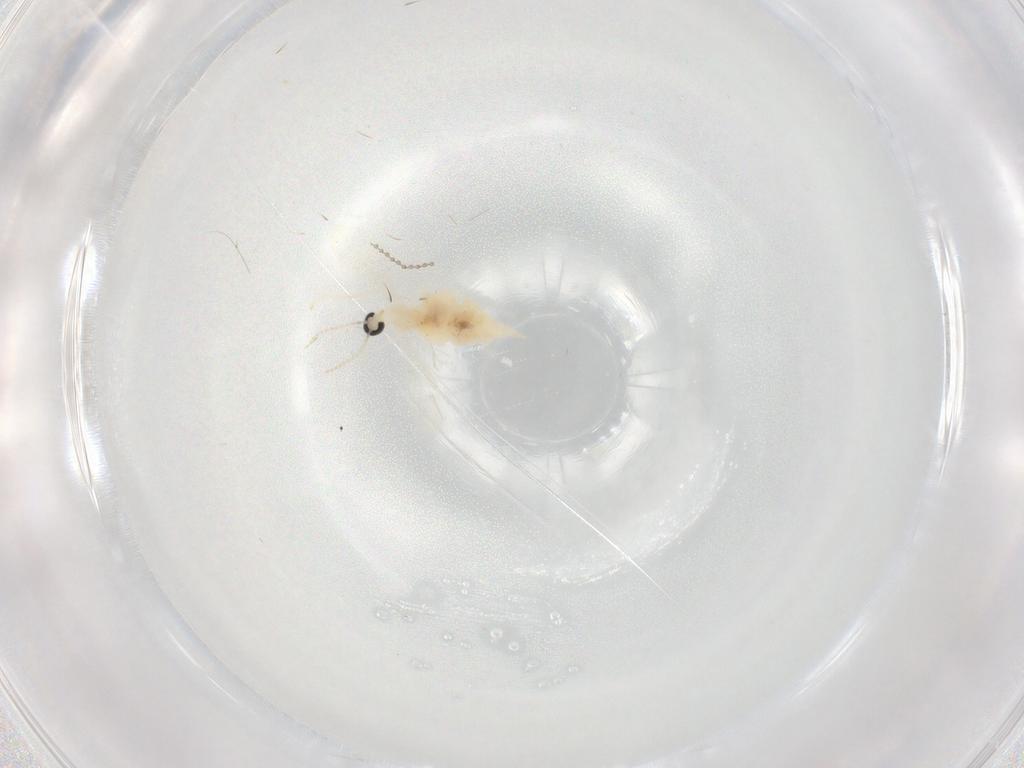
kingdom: Animalia
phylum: Arthropoda
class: Insecta
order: Diptera
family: Cecidomyiidae
